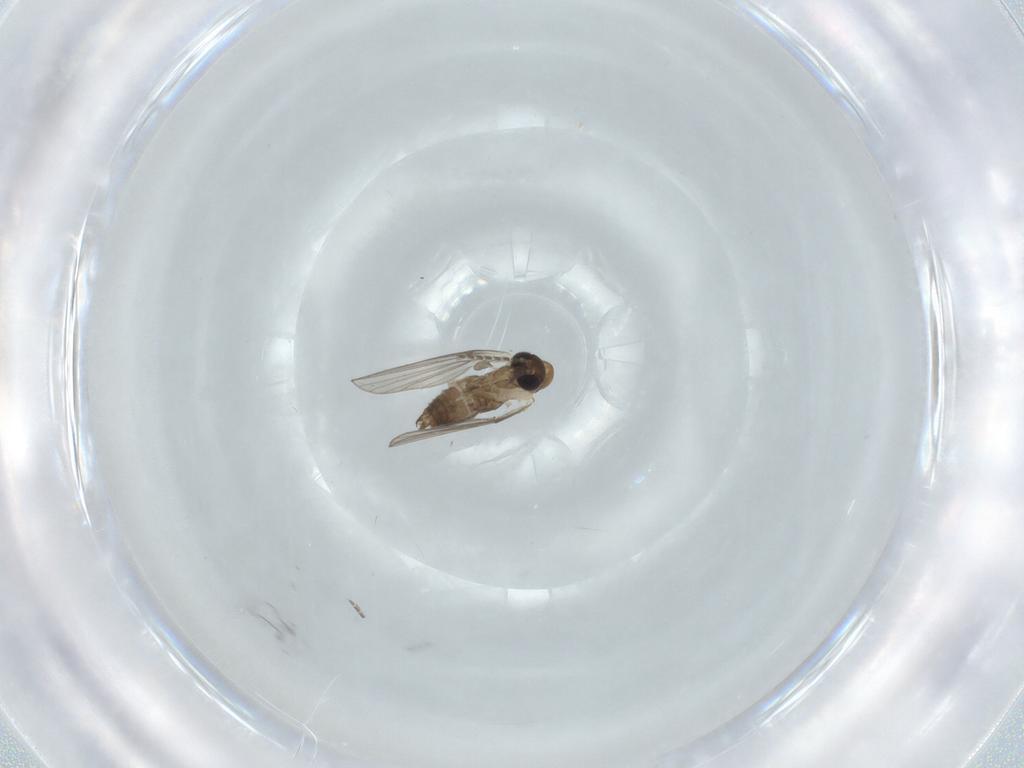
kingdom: Animalia
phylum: Arthropoda
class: Insecta
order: Diptera
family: Psychodidae
